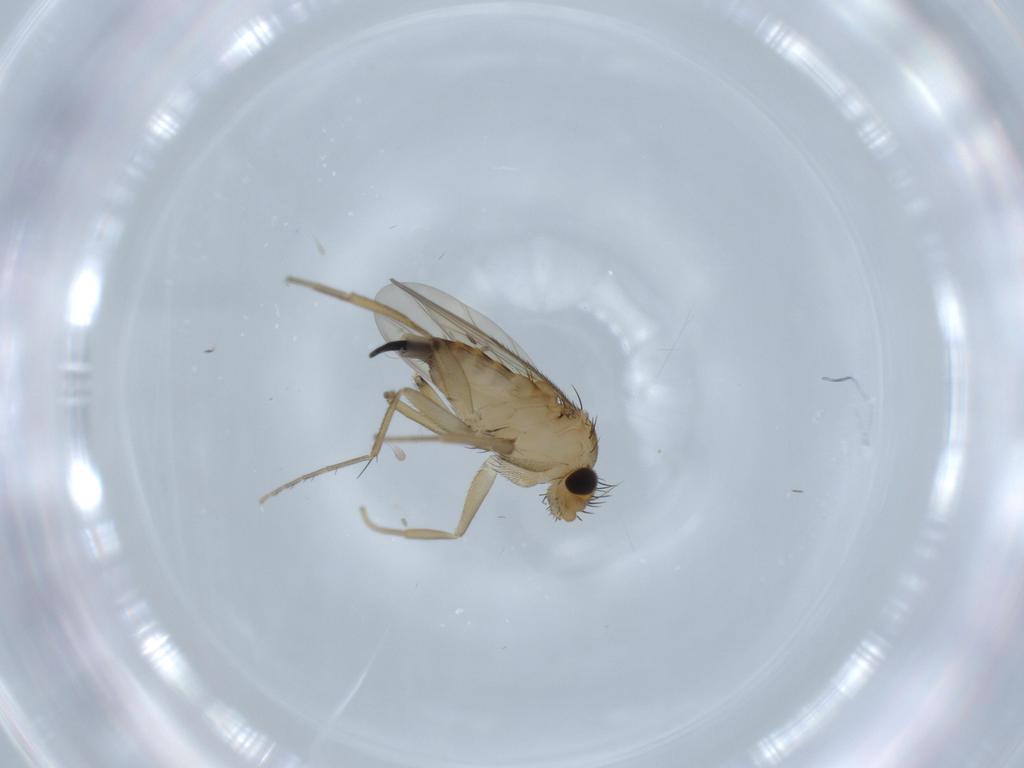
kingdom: Animalia
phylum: Arthropoda
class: Insecta
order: Diptera
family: Phoridae
